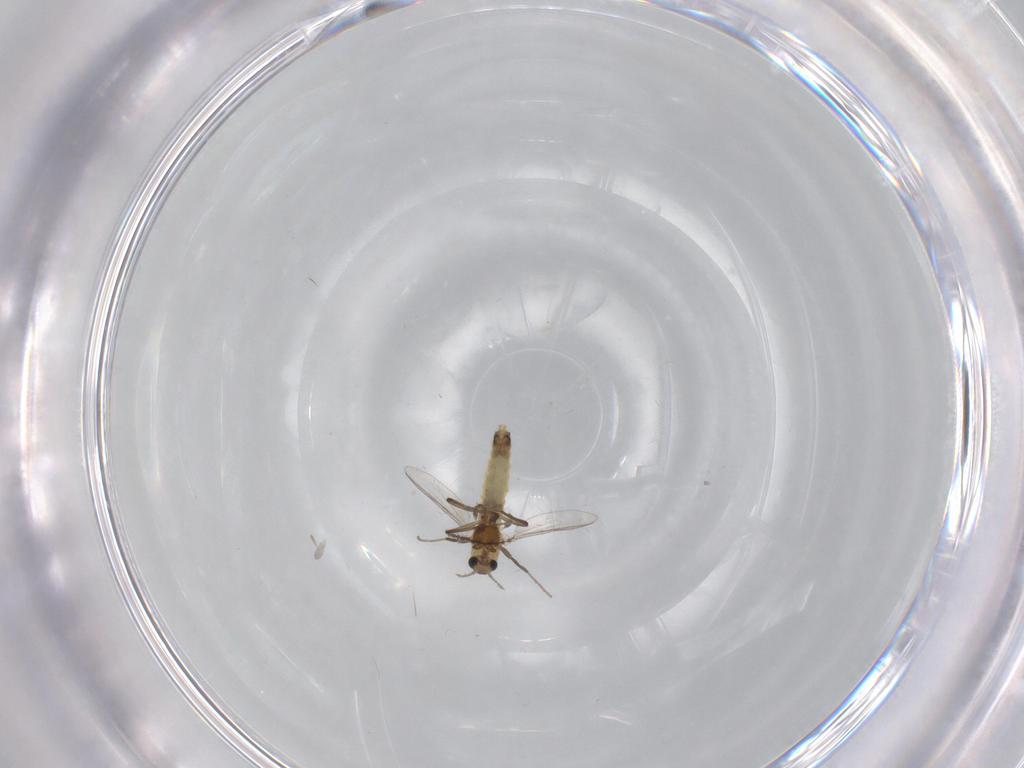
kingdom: Animalia
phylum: Arthropoda
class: Insecta
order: Diptera
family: Chironomidae
